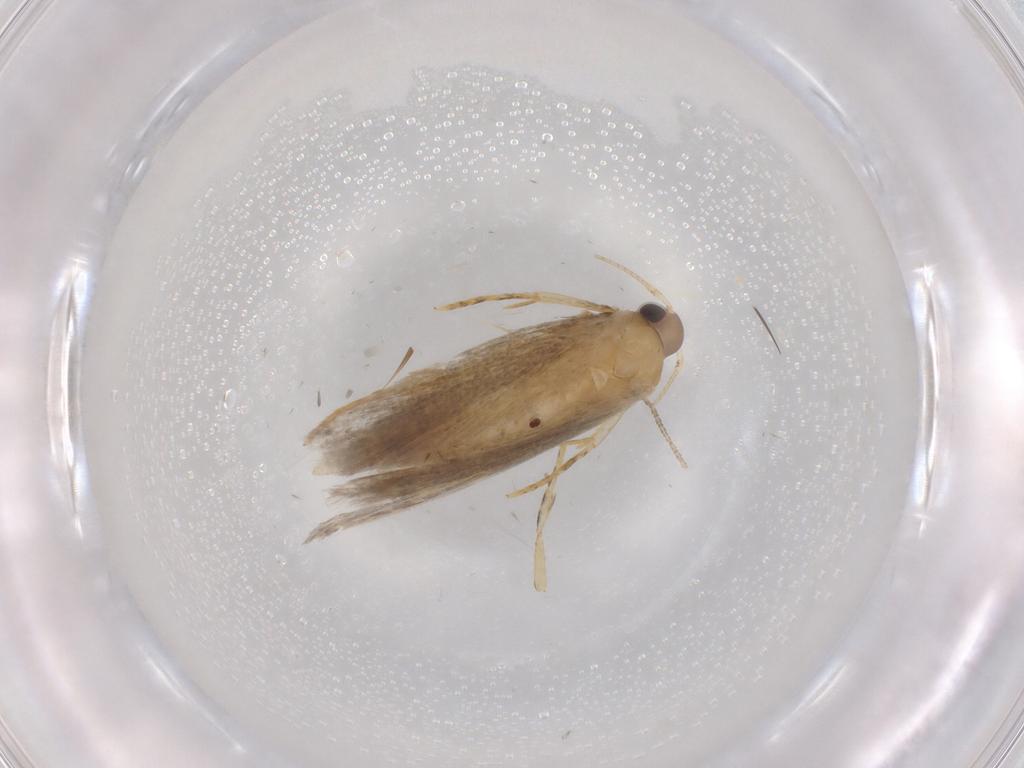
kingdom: Animalia
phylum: Arthropoda
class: Insecta
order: Lepidoptera
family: Autostichidae
